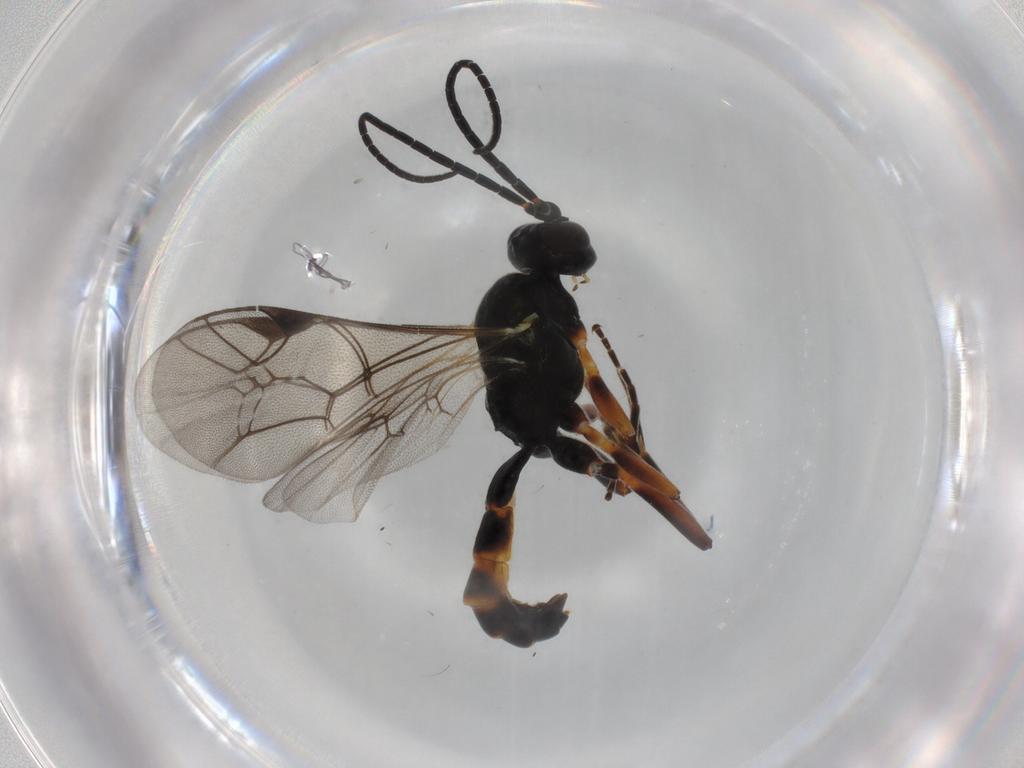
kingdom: Animalia
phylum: Arthropoda
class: Insecta
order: Hymenoptera
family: Ichneumonidae
